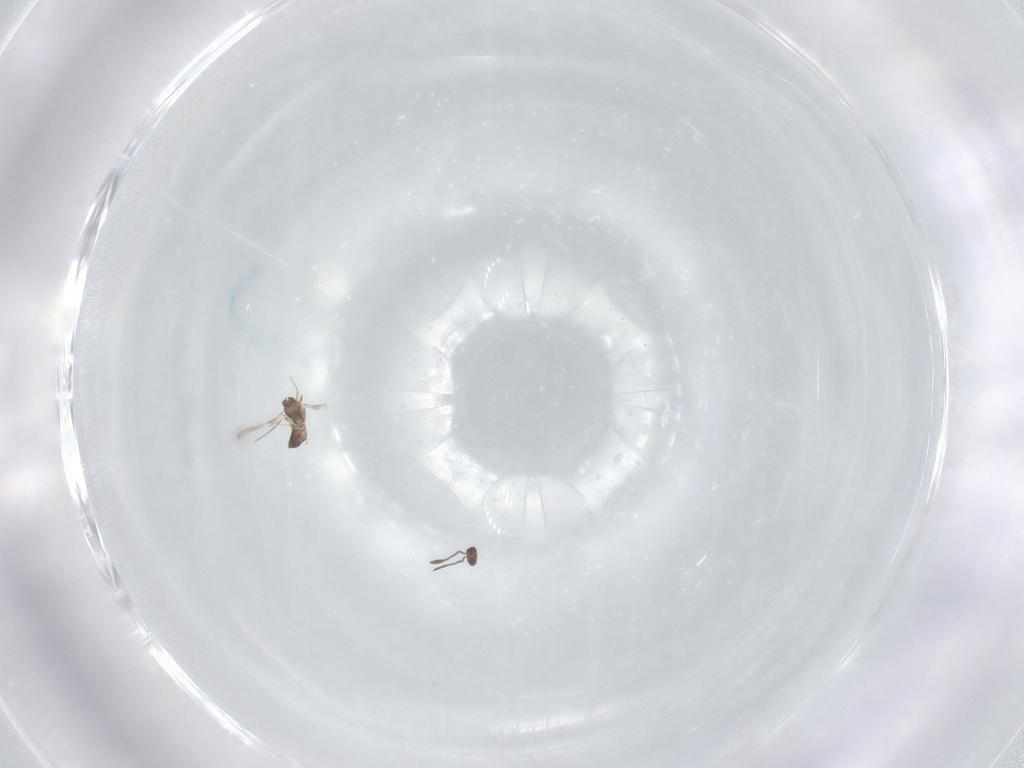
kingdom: Animalia
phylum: Arthropoda
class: Insecta
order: Hymenoptera
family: Mymaridae
